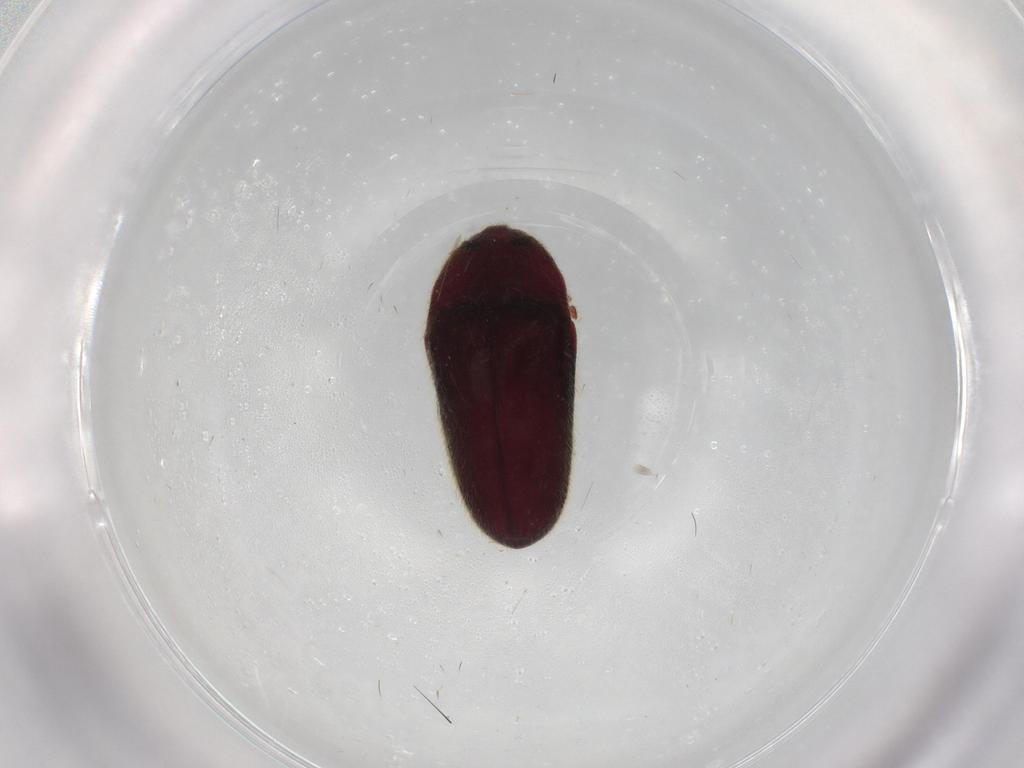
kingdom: Animalia
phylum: Arthropoda
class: Insecta
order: Coleoptera
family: Throscidae
